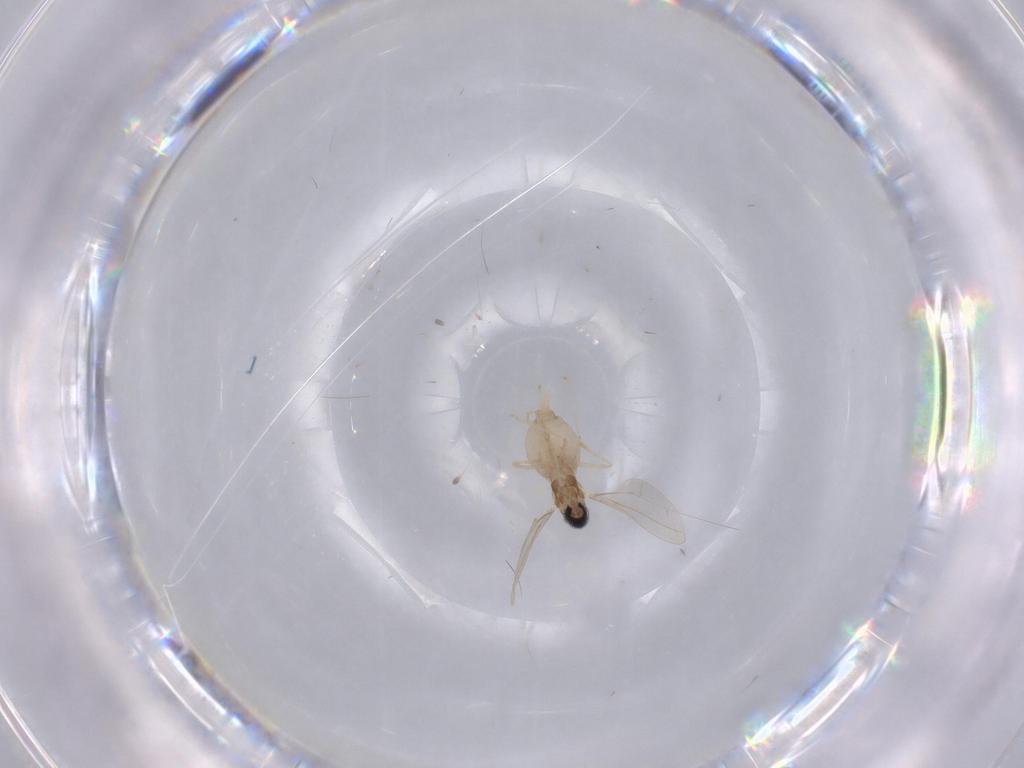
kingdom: Animalia
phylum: Arthropoda
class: Insecta
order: Diptera
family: Cecidomyiidae
